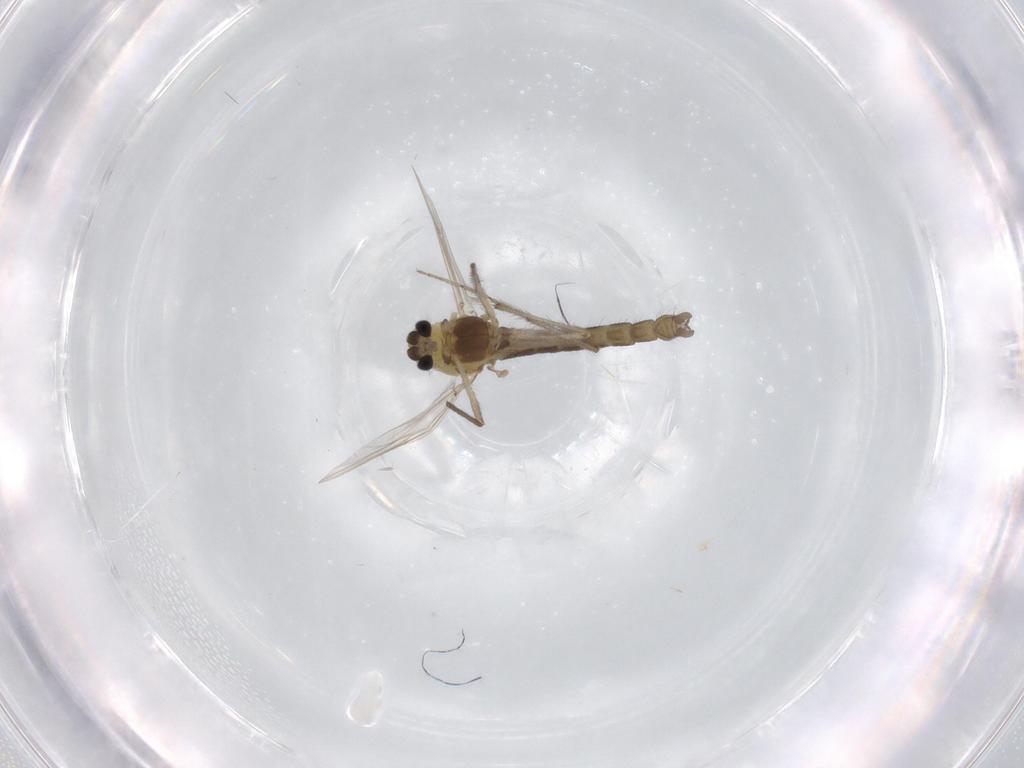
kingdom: Animalia
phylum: Arthropoda
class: Insecta
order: Diptera
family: Chironomidae
